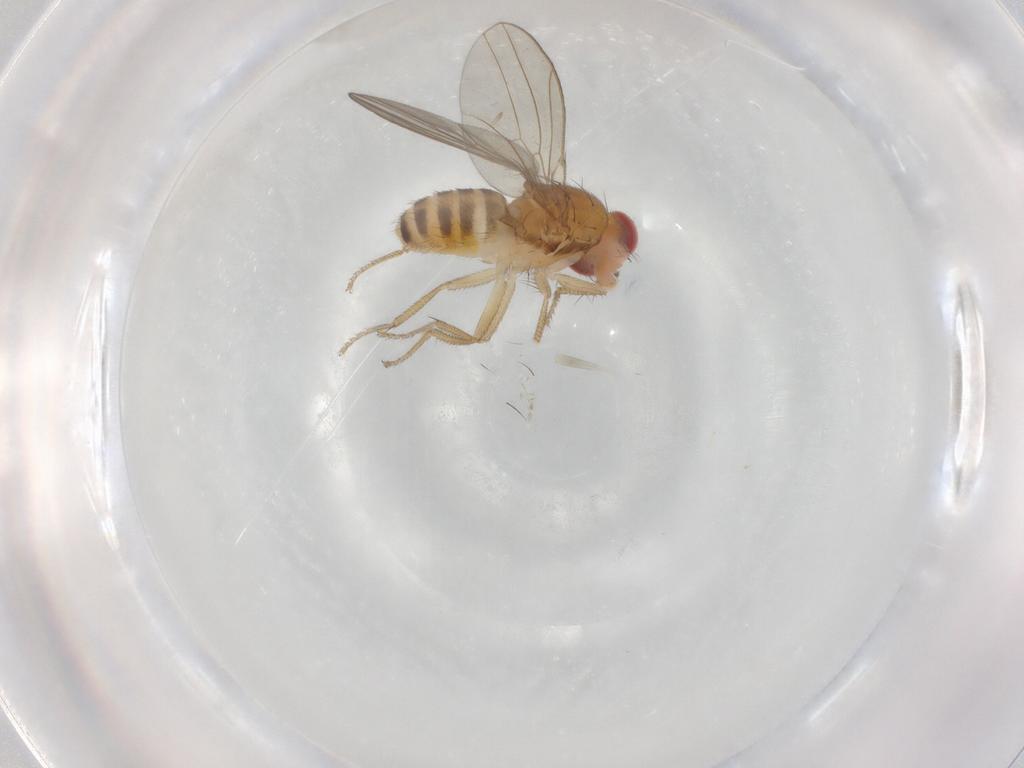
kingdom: Animalia
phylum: Arthropoda
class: Insecta
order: Diptera
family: Drosophilidae
